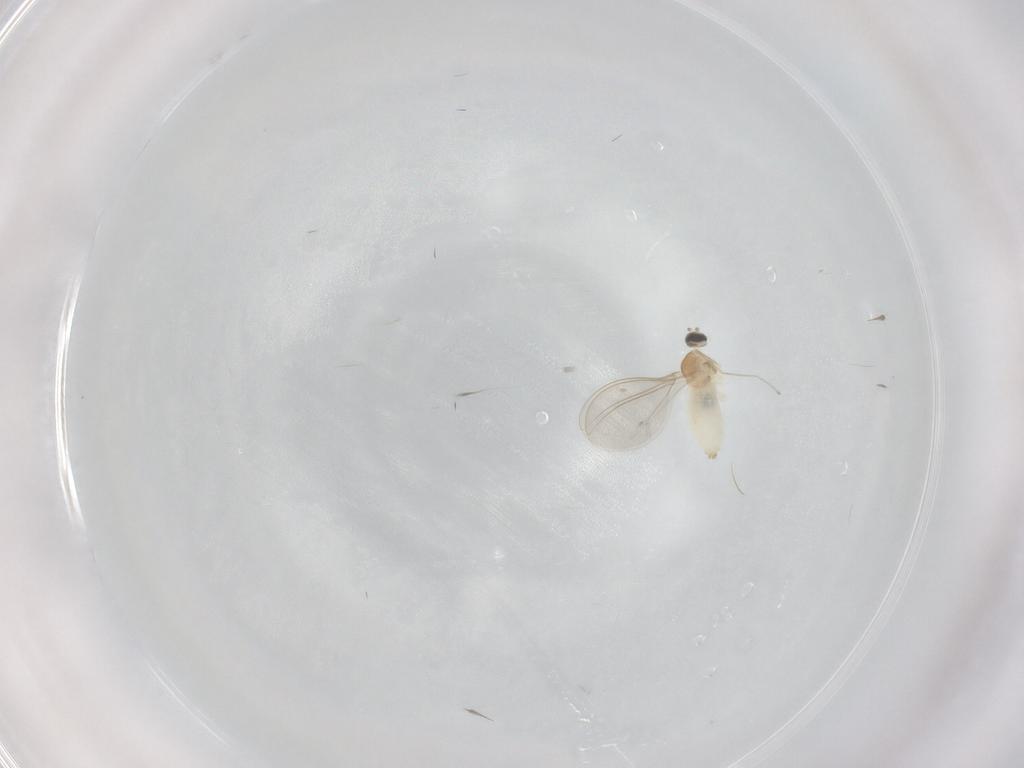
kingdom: Animalia
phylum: Arthropoda
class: Insecta
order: Diptera
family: Cecidomyiidae
